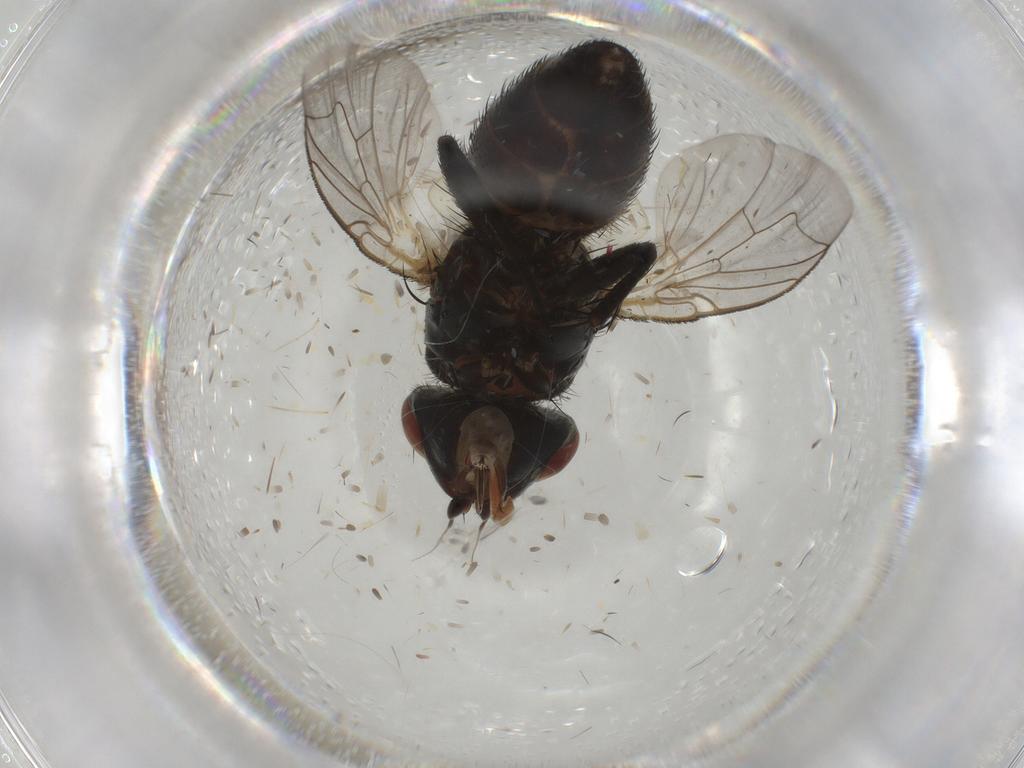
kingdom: Animalia
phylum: Arthropoda
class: Insecta
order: Diptera
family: Sarcophagidae
